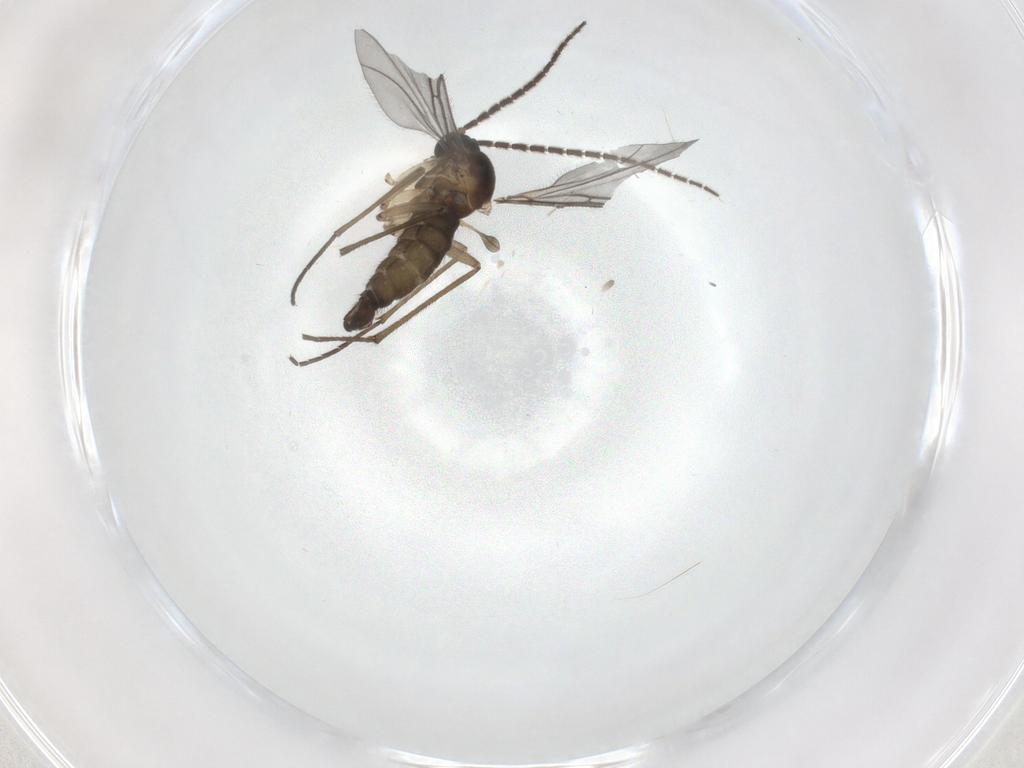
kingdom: Animalia
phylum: Arthropoda
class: Insecta
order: Diptera
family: Sciaridae
